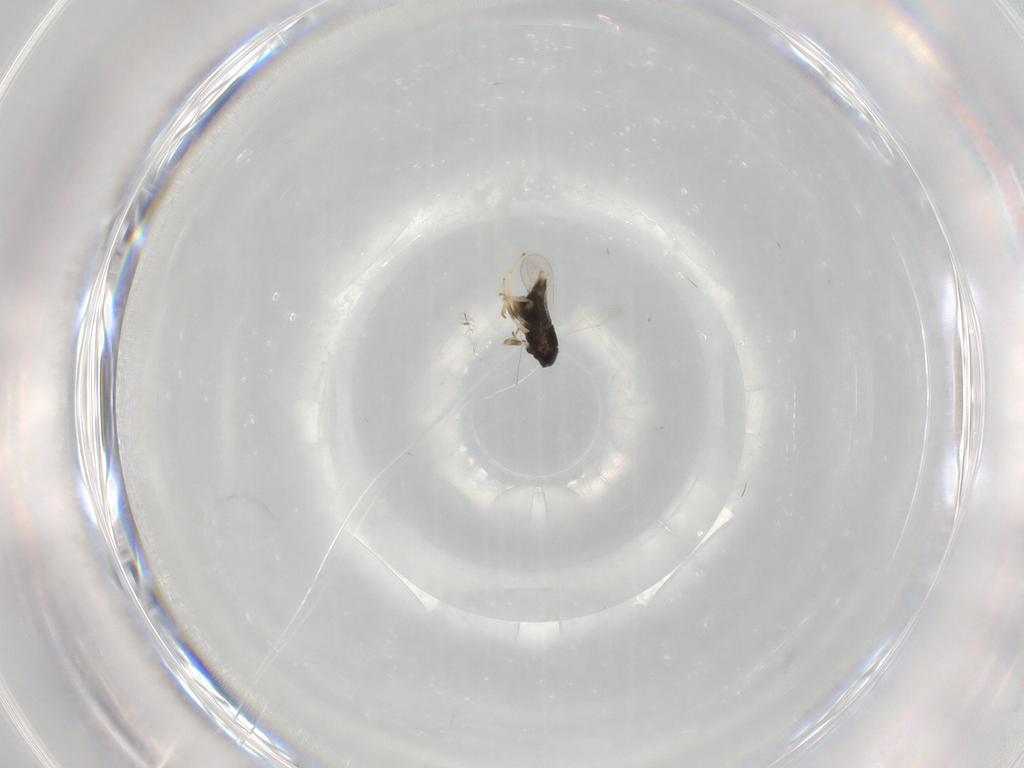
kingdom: Animalia
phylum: Arthropoda
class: Insecta
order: Hymenoptera
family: Aphelinidae
